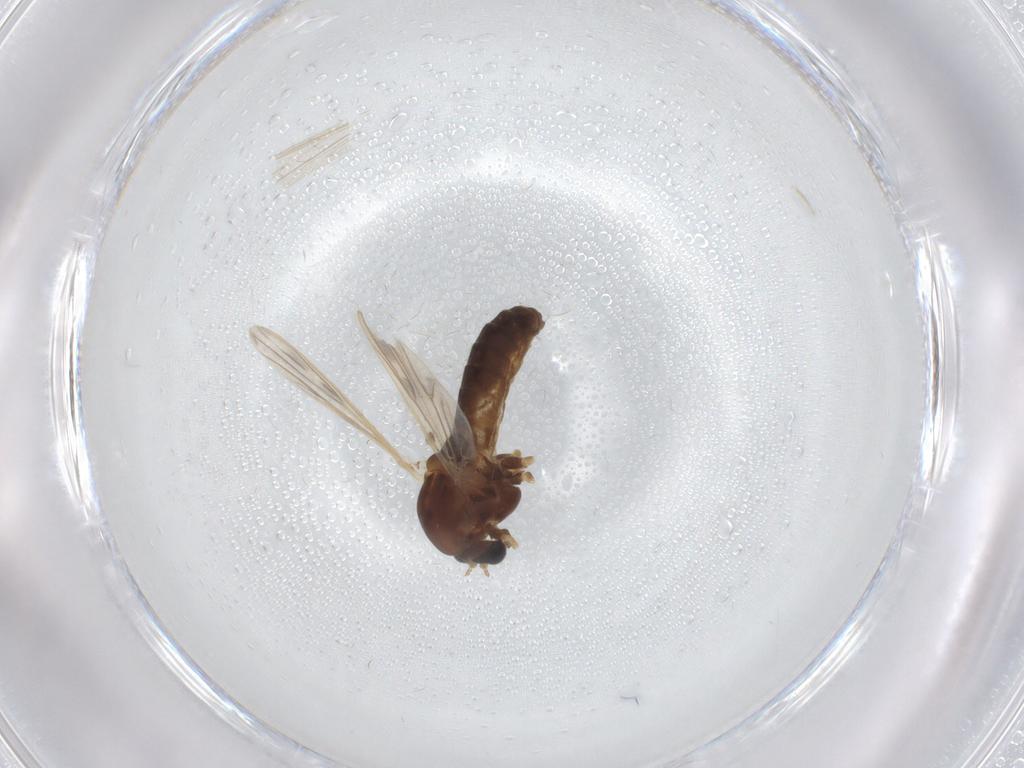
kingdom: Animalia
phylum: Arthropoda
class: Insecta
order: Diptera
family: Chironomidae
